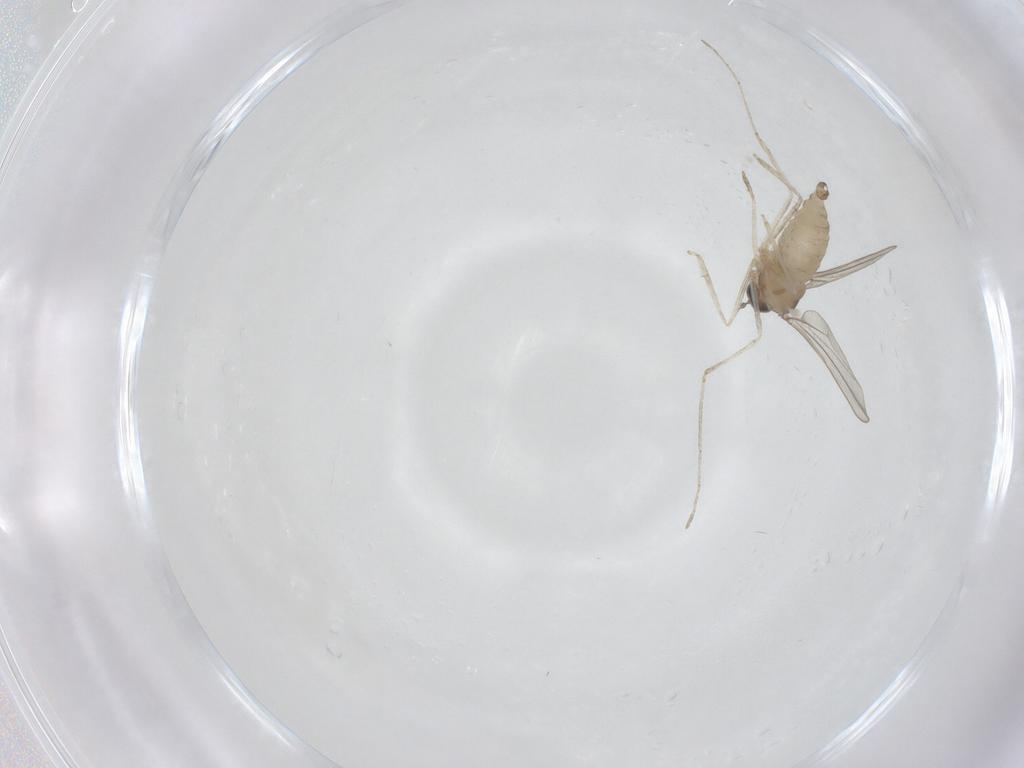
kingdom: Animalia
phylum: Arthropoda
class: Insecta
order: Diptera
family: Cecidomyiidae
